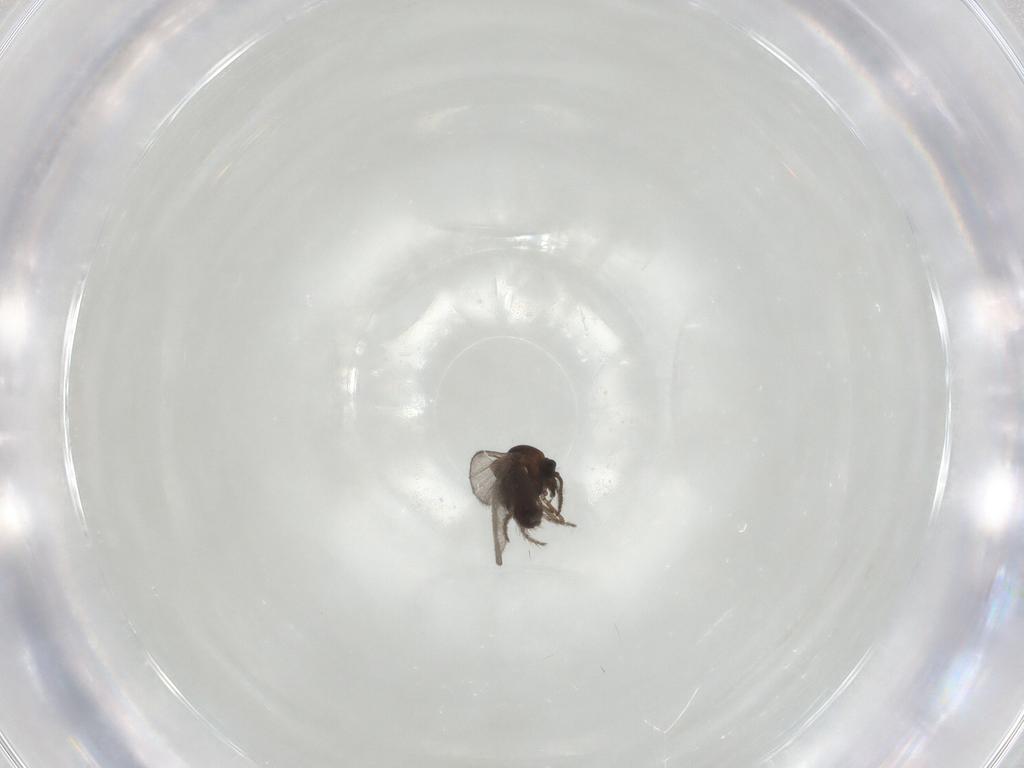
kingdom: Animalia
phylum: Arthropoda
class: Insecta
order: Diptera
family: Ceratopogonidae
